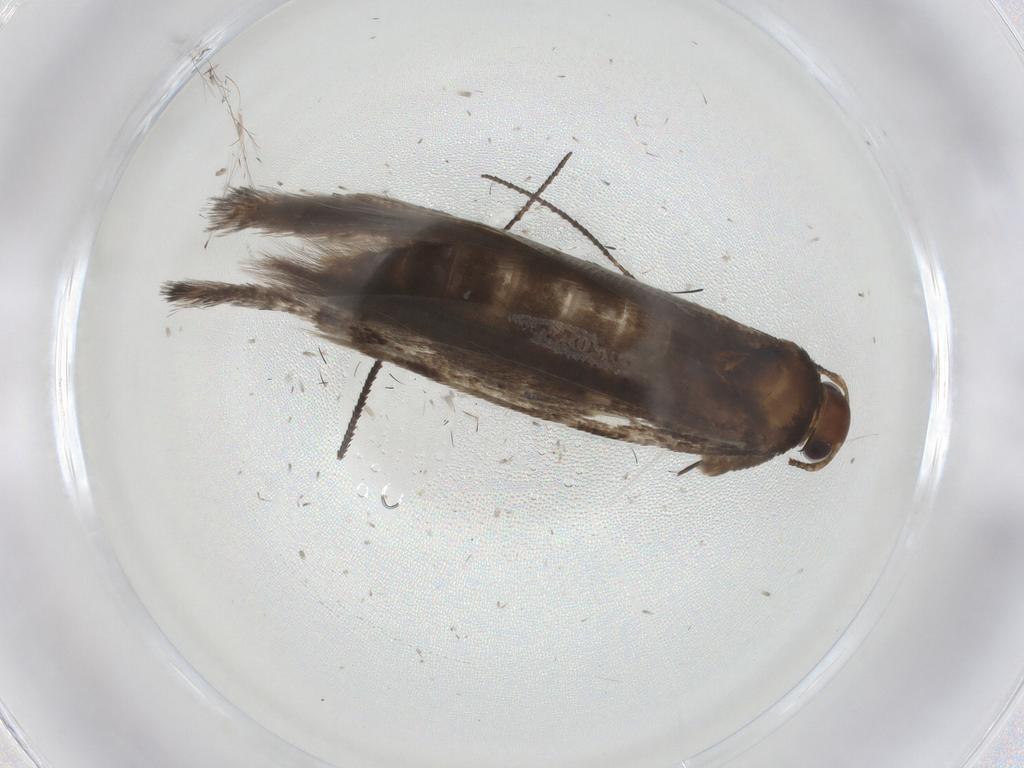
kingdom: Animalia
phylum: Arthropoda
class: Insecta
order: Lepidoptera
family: Gelechiidae
